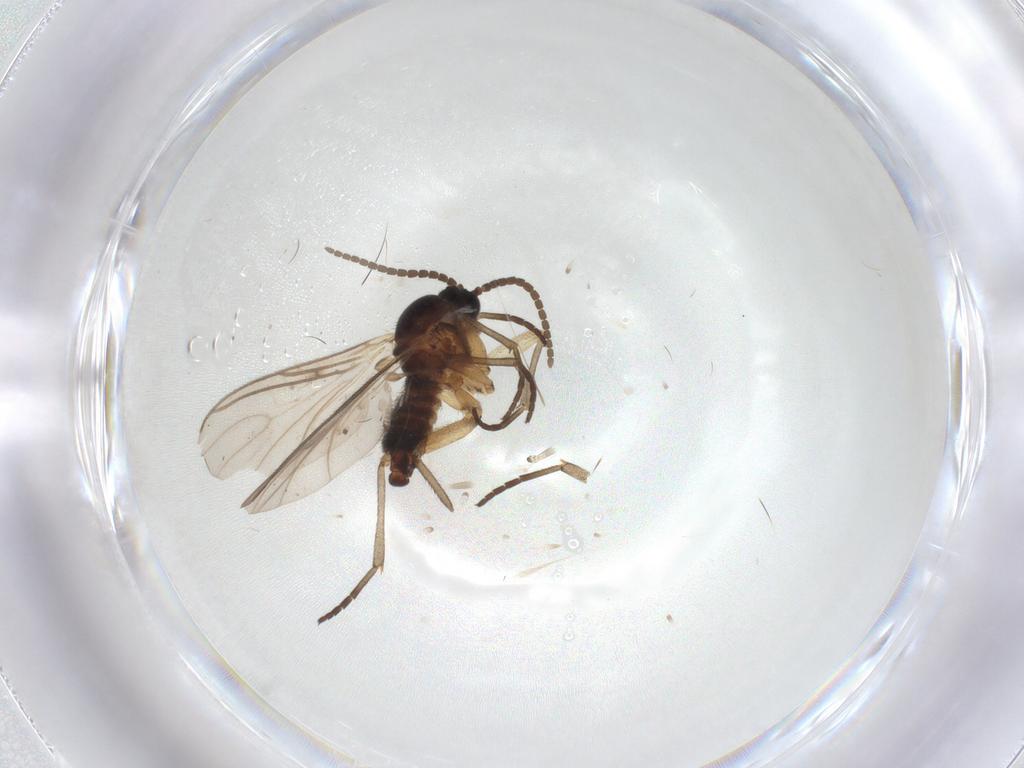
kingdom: Animalia
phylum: Arthropoda
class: Insecta
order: Diptera
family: Sciaridae
